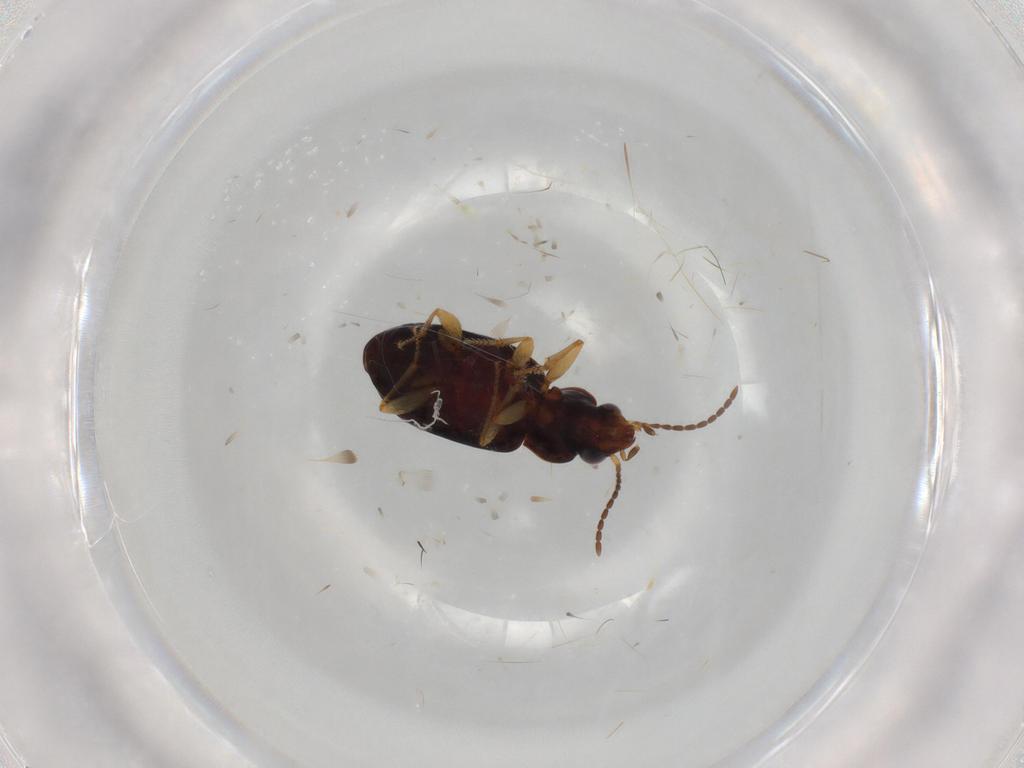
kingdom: Animalia
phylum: Arthropoda
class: Insecta
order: Coleoptera
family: Carabidae
